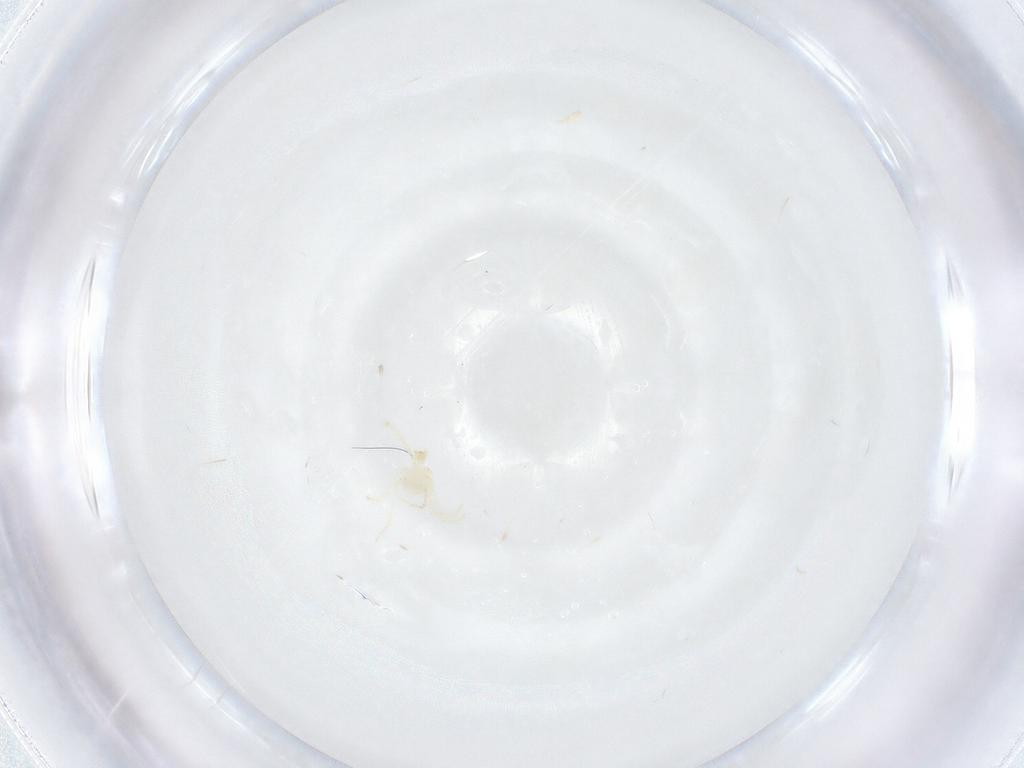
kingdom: Animalia
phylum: Arthropoda
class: Arachnida
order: Trombidiformes
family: Erythraeidae
